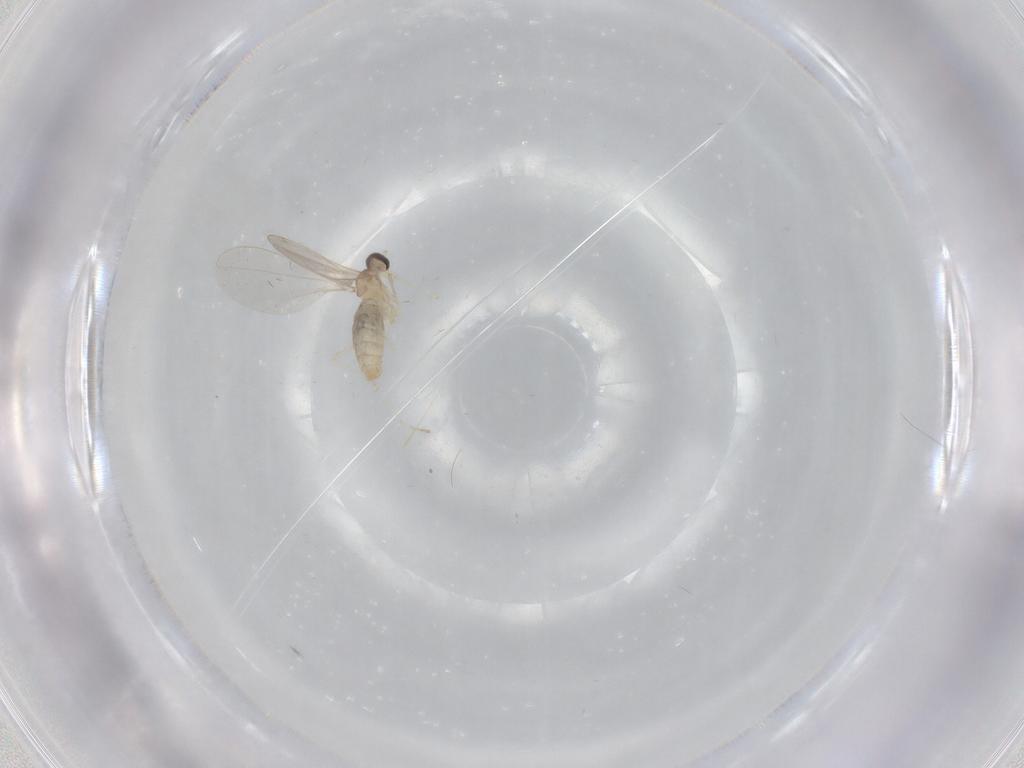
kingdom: Animalia
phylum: Arthropoda
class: Insecta
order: Diptera
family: Cecidomyiidae
